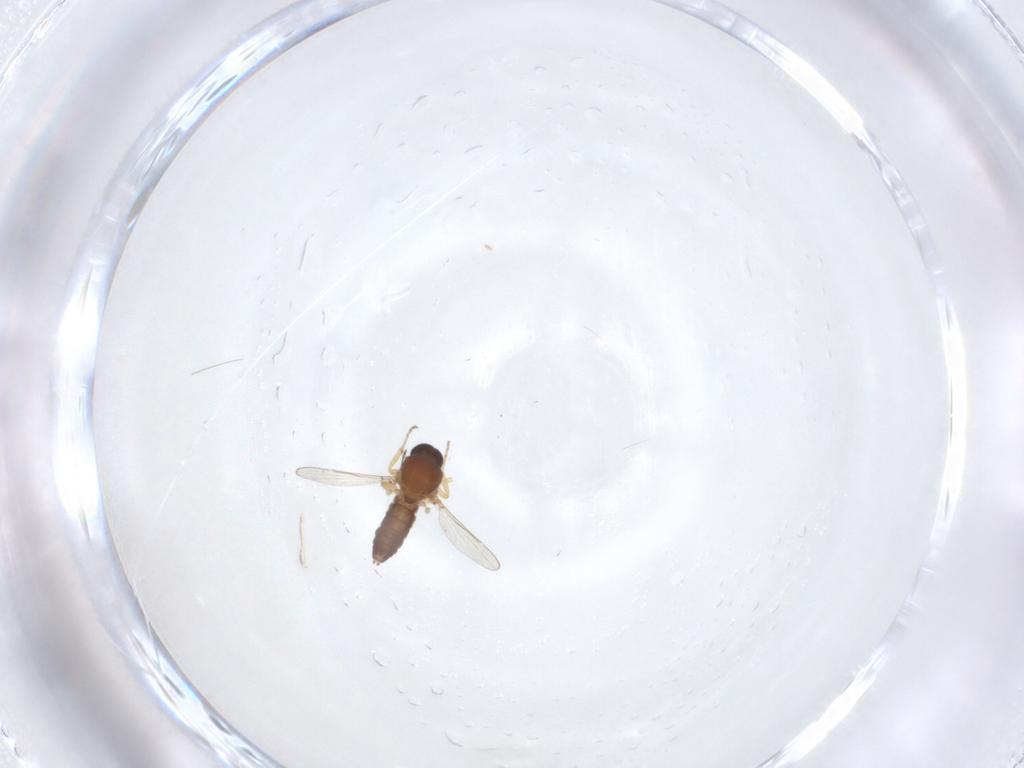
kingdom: Animalia
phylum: Arthropoda
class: Insecta
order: Diptera
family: Ceratopogonidae
